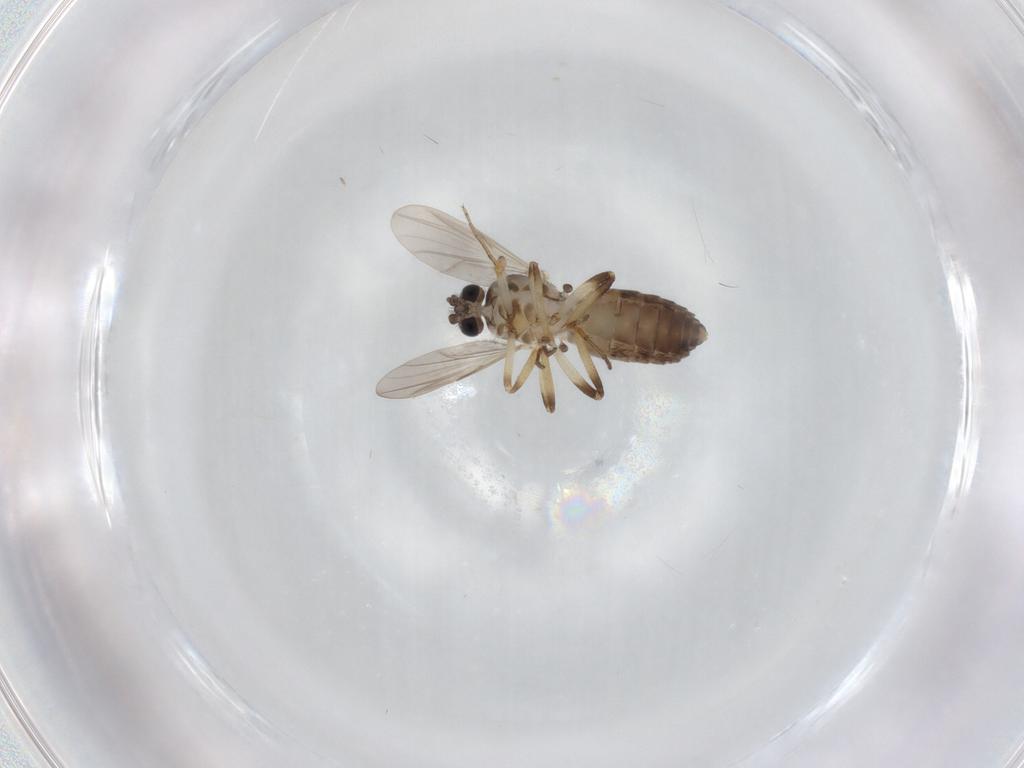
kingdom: Animalia
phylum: Arthropoda
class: Insecta
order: Diptera
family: Ceratopogonidae
